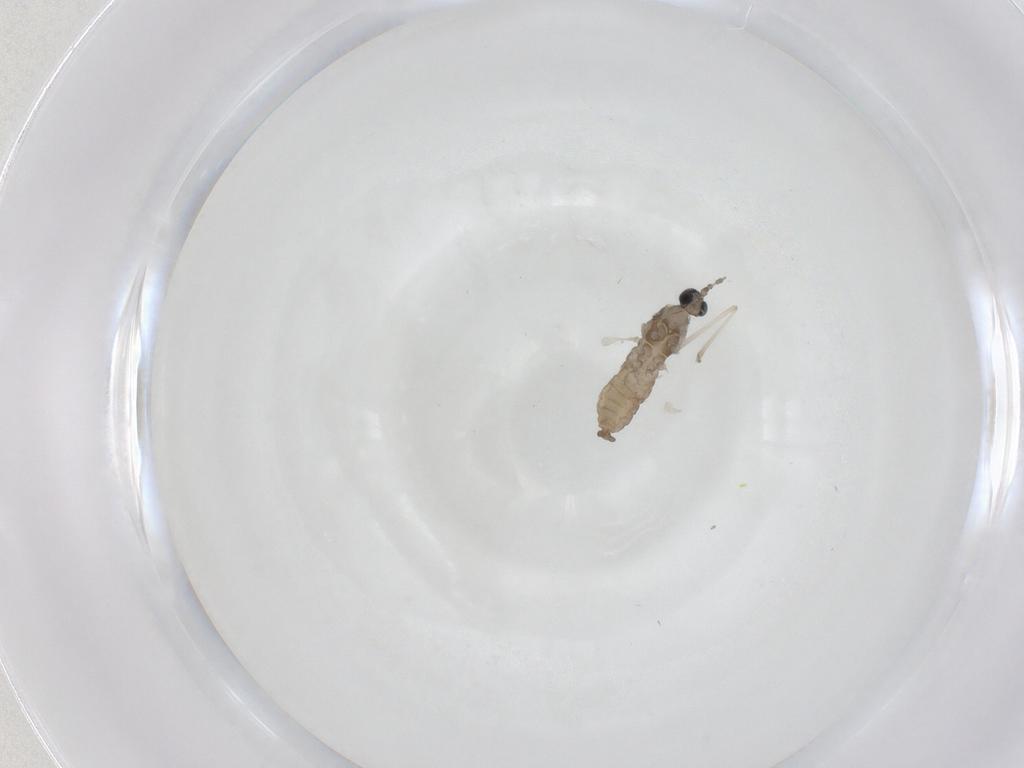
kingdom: Animalia
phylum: Arthropoda
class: Insecta
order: Diptera
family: Cecidomyiidae
